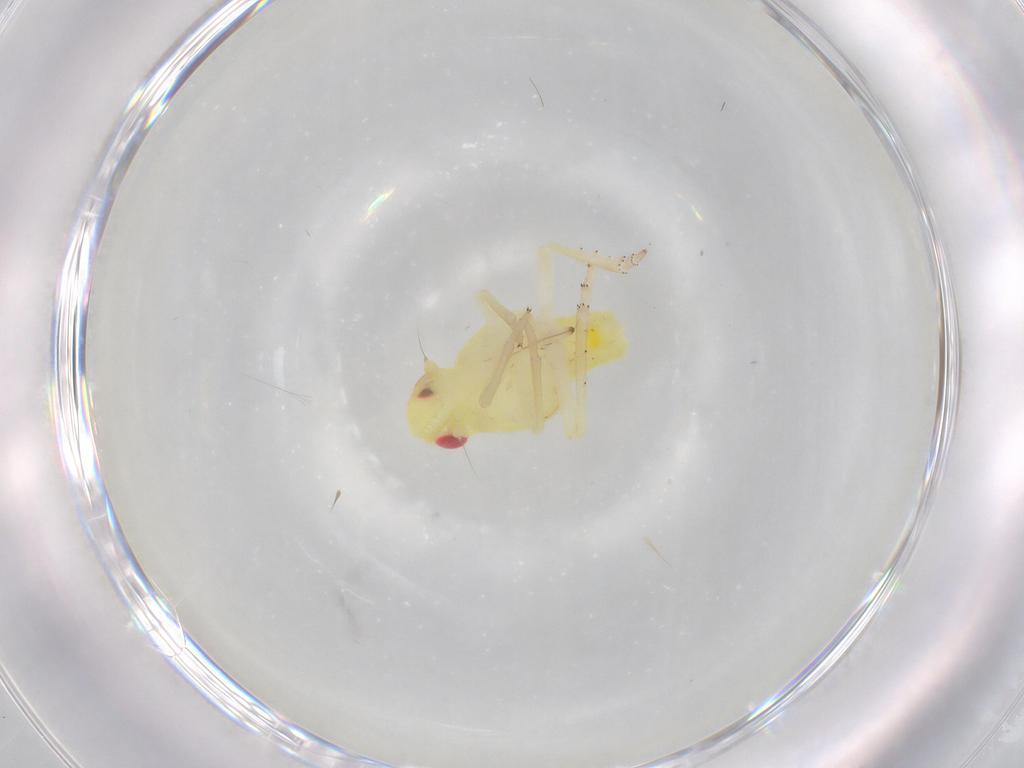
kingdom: Animalia
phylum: Arthropoda
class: Insecta
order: Hemiptera
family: Tropiduchidae
